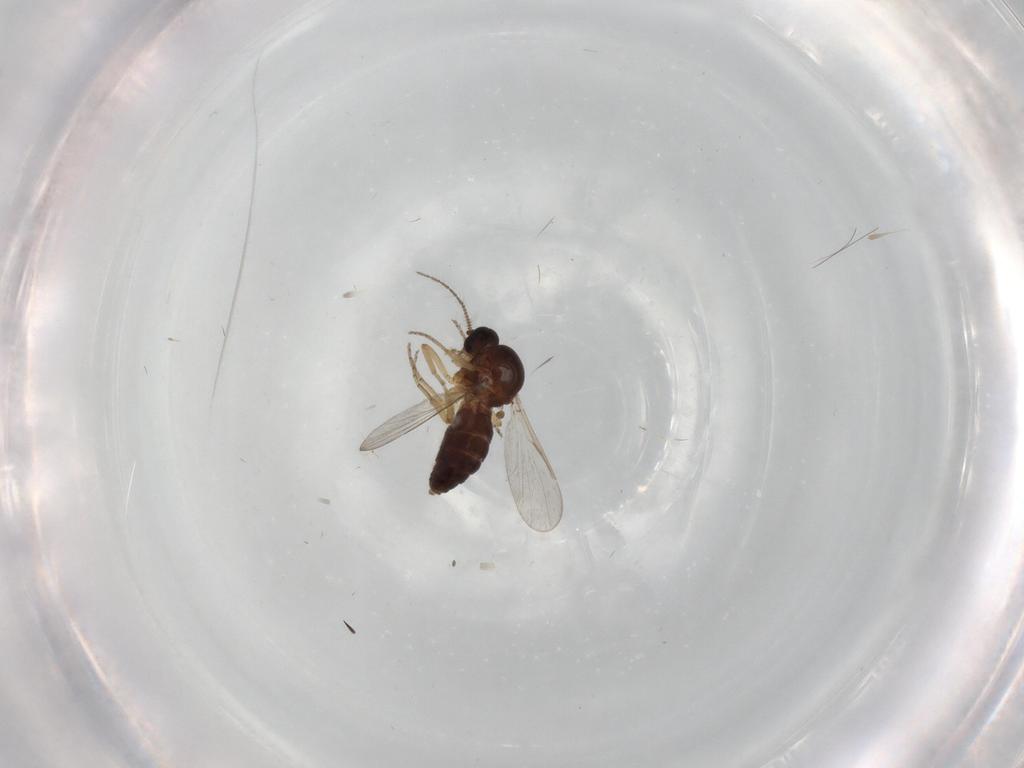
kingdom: Animalia
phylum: Arthropoda
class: Insecta
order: Diptera
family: Ceratopogonidae
